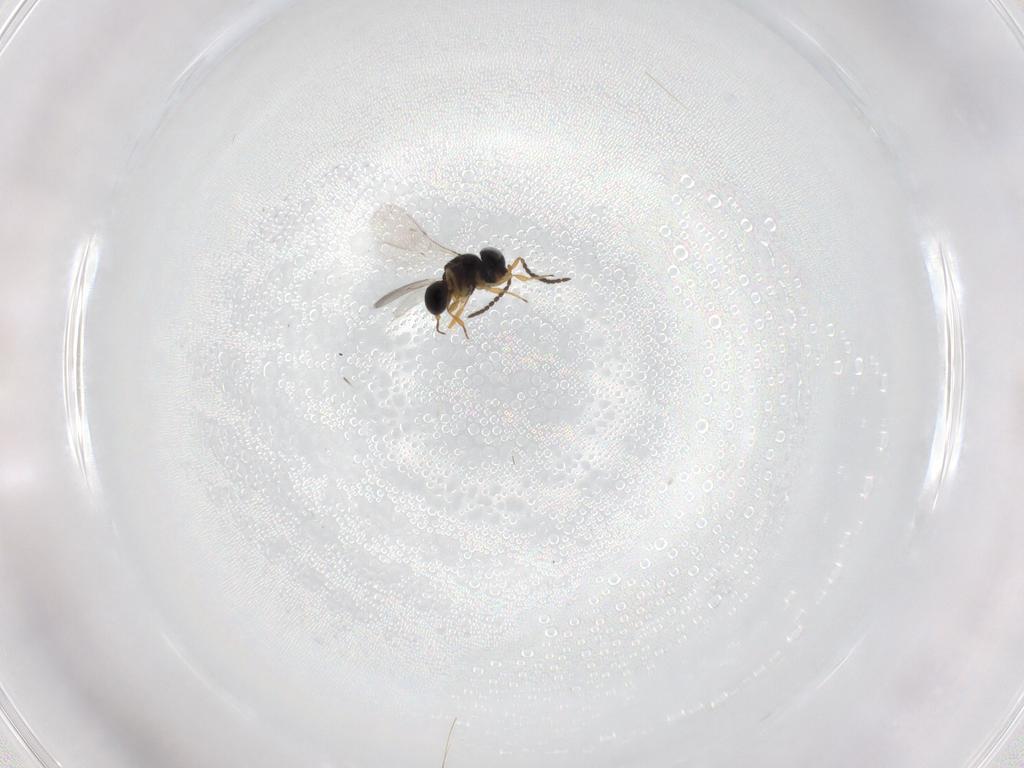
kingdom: Animalia
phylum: Arthropoda
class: Insecta
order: Hymenoptera
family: Scelionidae
